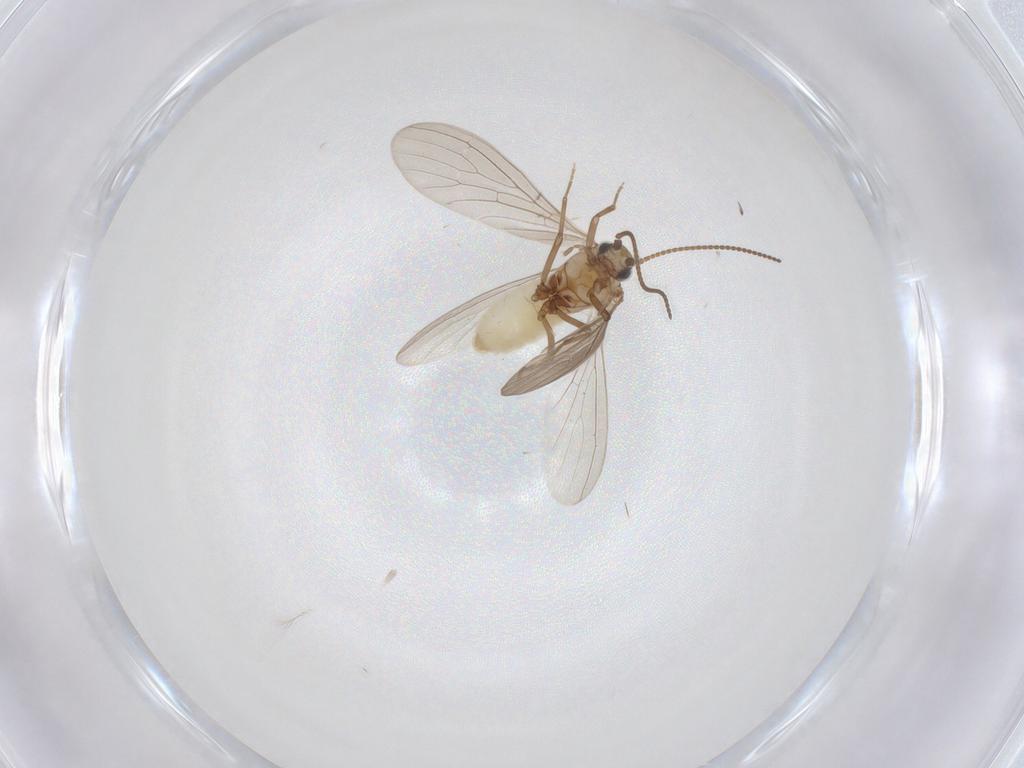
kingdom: Animalia
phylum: Arthropoda
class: Insecta
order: Neuroptera
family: Coniopterygidae
